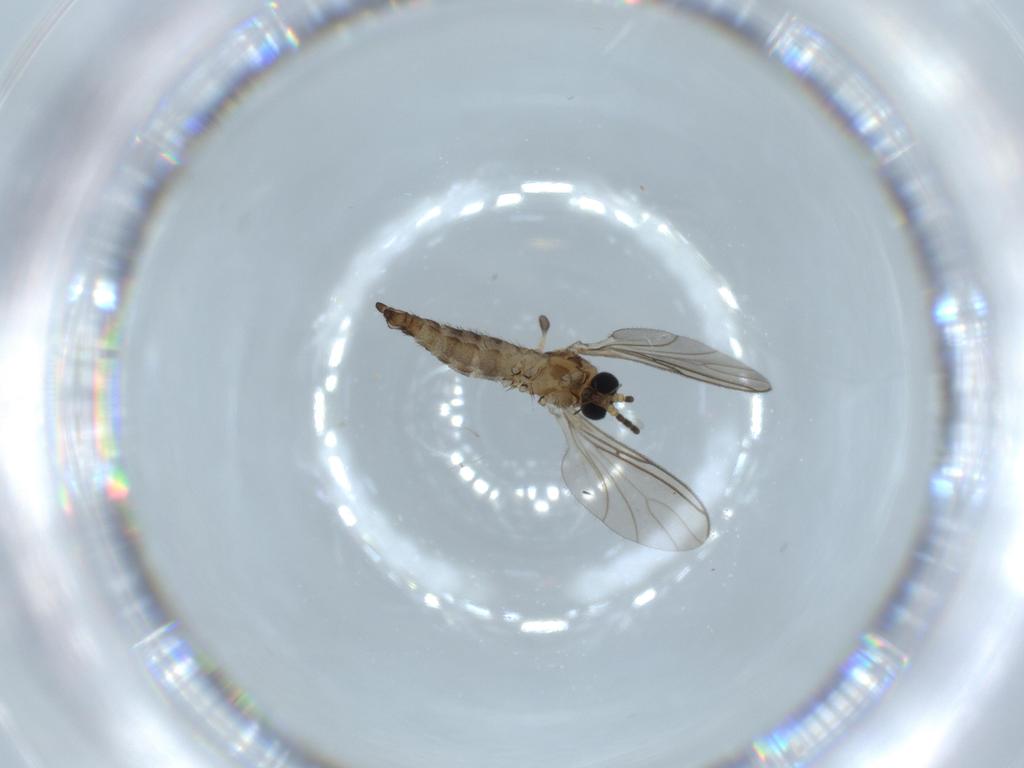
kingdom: Animalia
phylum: Arthropoda
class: Insecta
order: Diptera
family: Sciaridae
